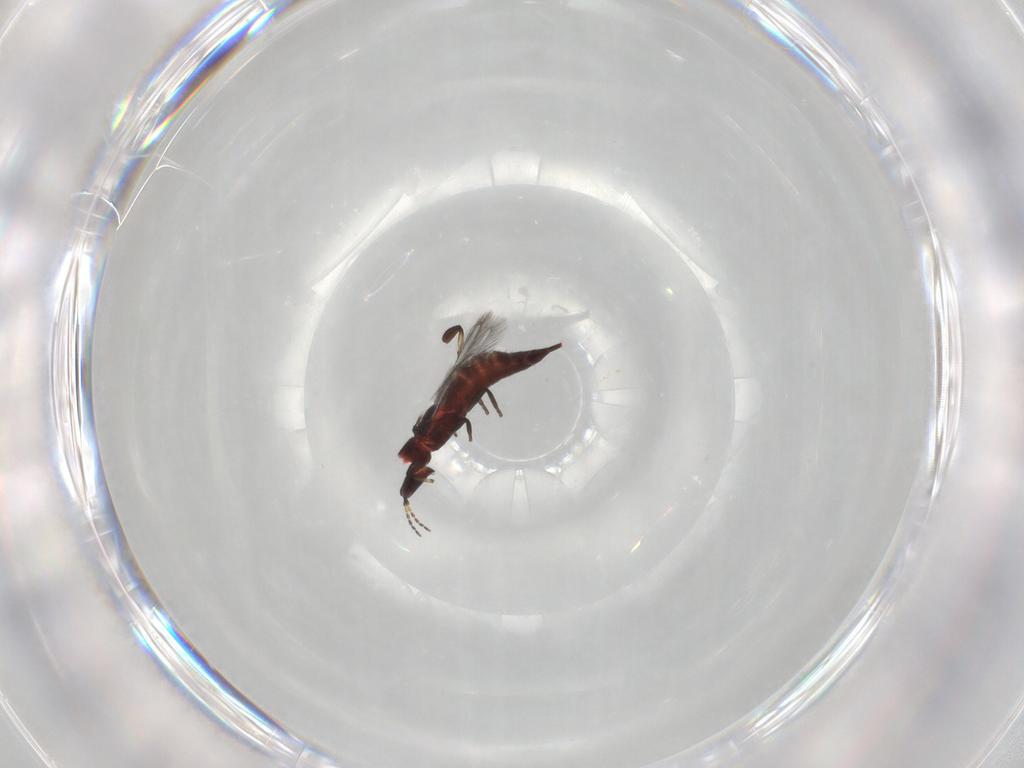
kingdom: Animalia
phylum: Arthropoda
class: Insecta
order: Thysanoptera
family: Phlaeothripidae
